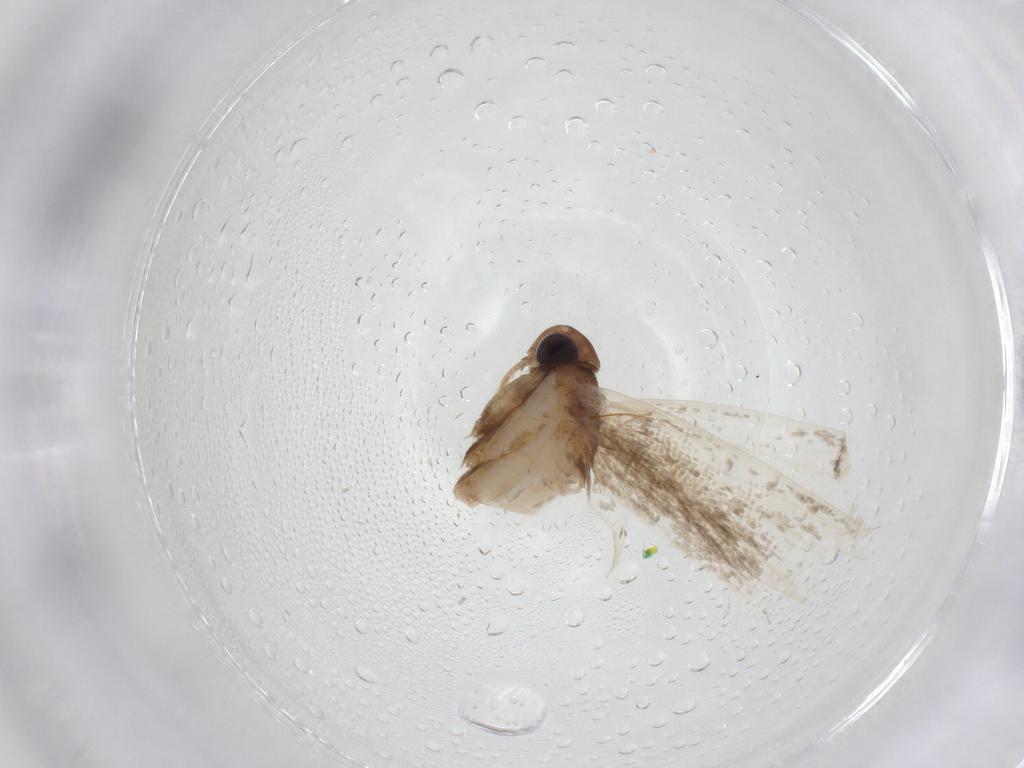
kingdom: Animalia
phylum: Arthropoda
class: Insecta
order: Lepidoptera
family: Gelechiidae
